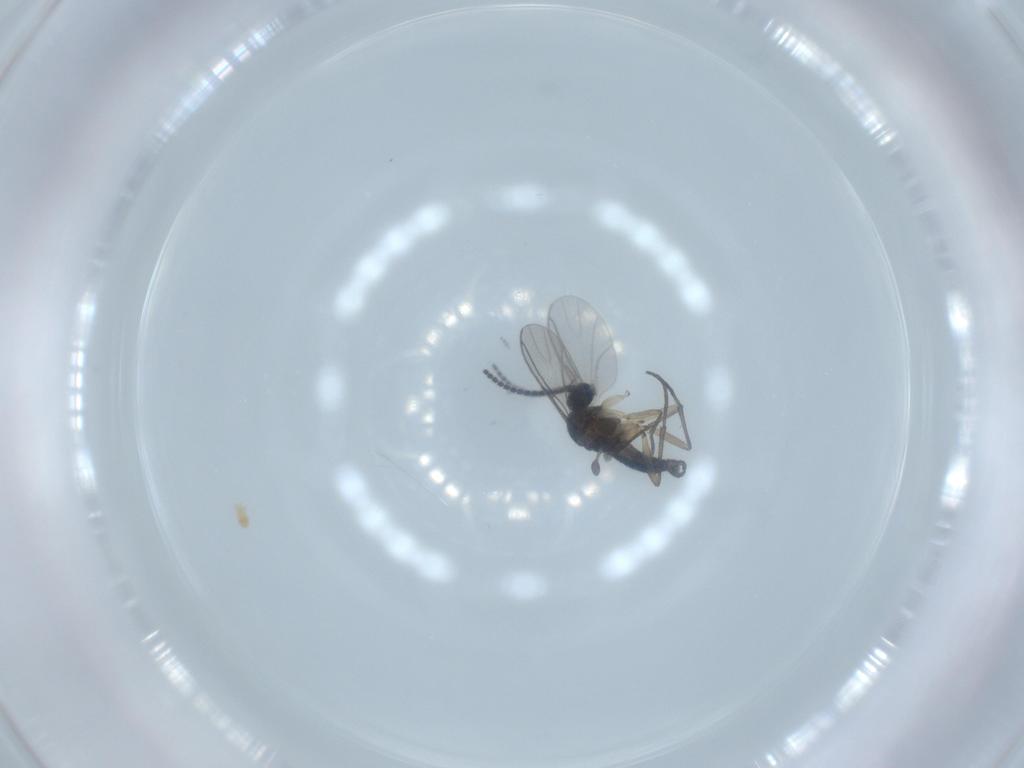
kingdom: Animalia
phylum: Arthropoda
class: Insecta
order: Diptera
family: Sciaridae
